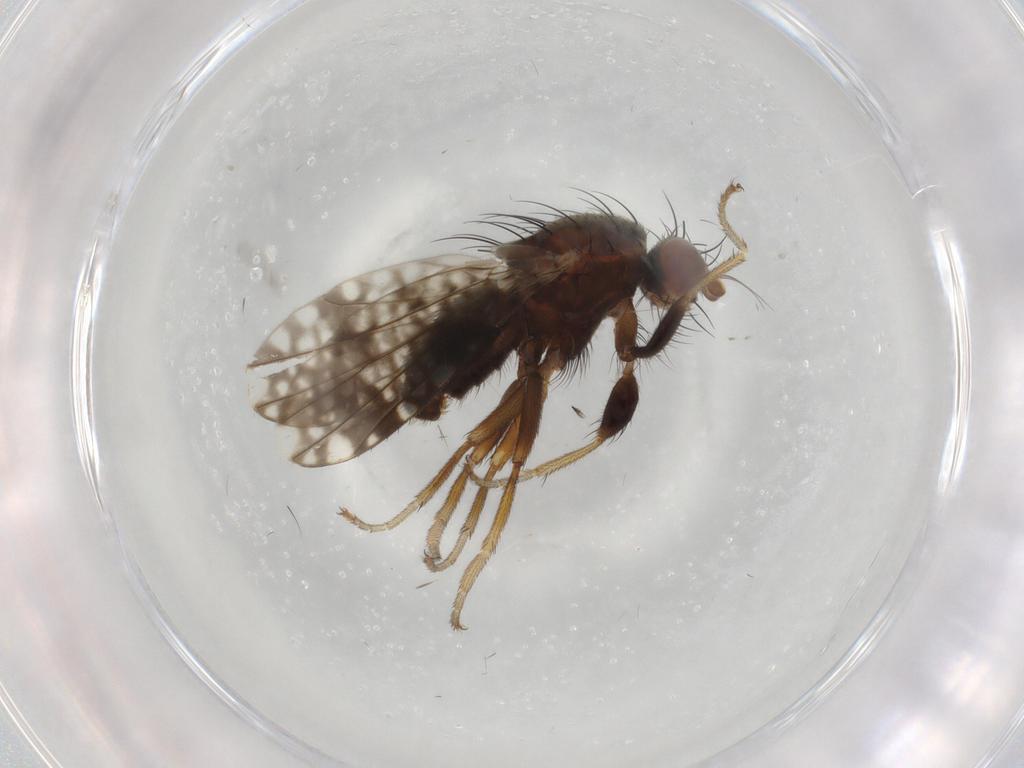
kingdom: Animalia
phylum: Arthropoda
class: Insecta
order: Diptera
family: Tephritidae
